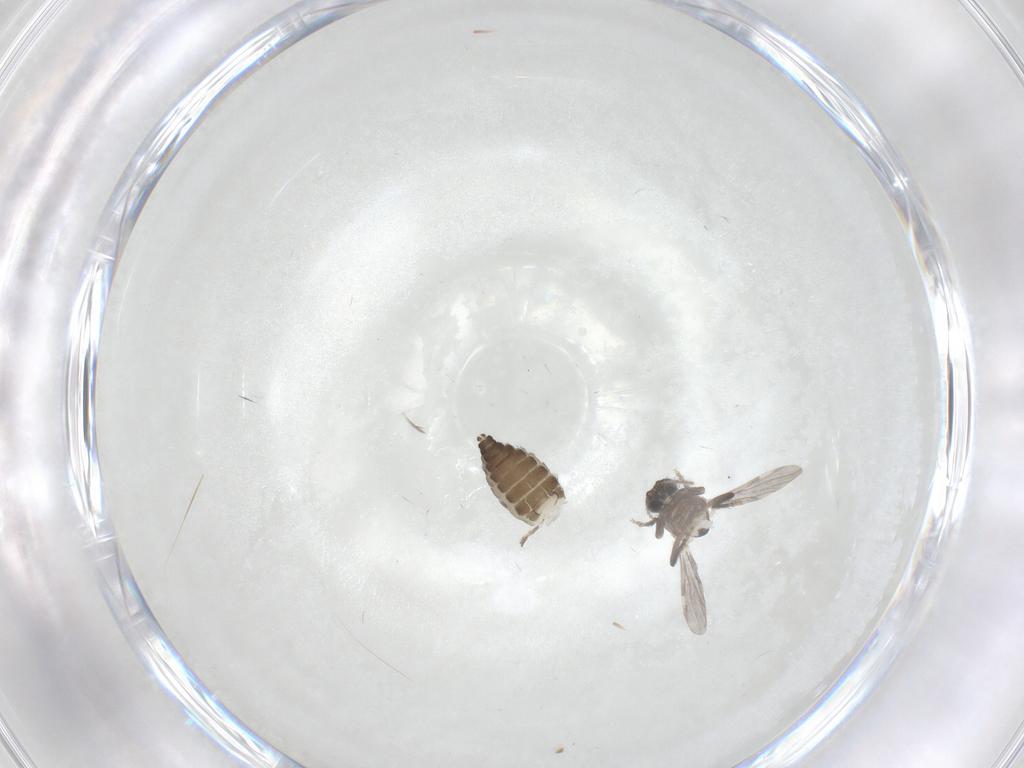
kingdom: Animalia
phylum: Arthropoda
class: Insecta
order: Diptera
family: Ceratopogonidae
